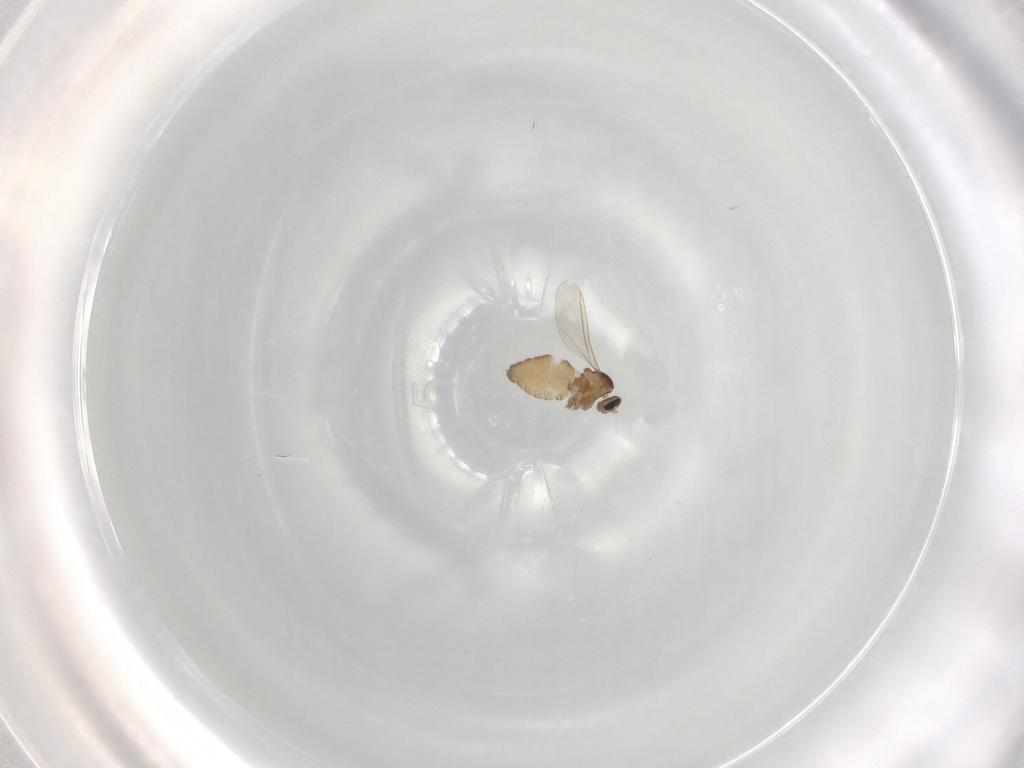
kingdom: Animalia
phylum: Arthropoda
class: Insecta
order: Diptera
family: Cecidomyiidae
